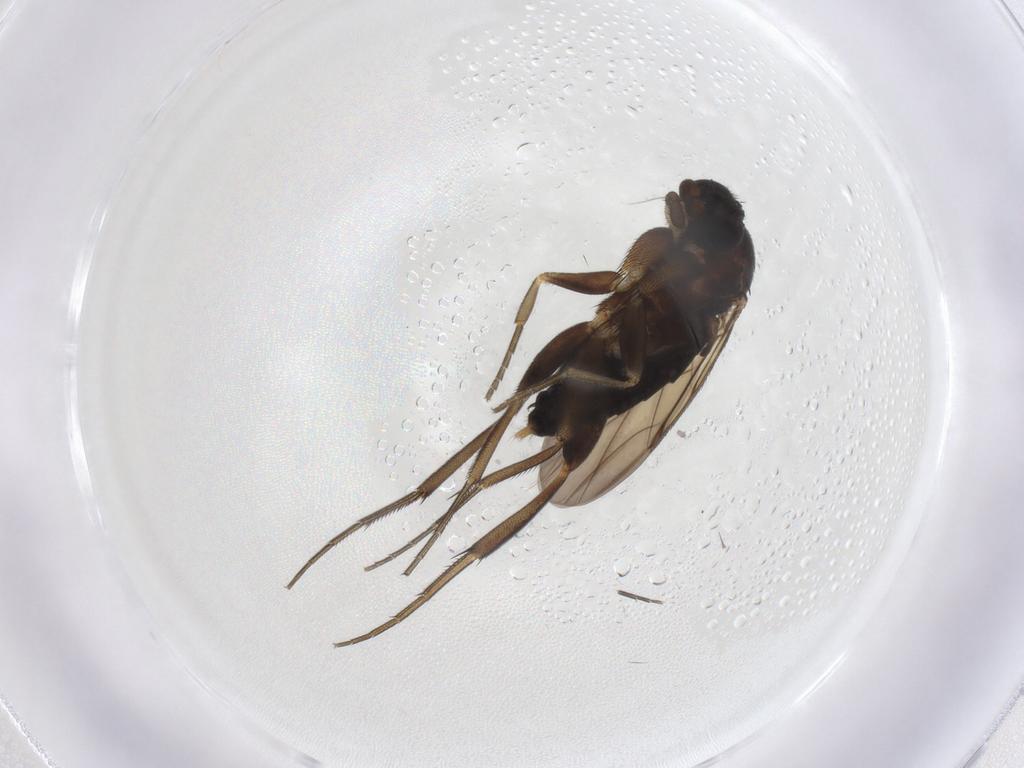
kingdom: Animalia
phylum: Arthropoda
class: Insecta
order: Diptera
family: Phoridae
